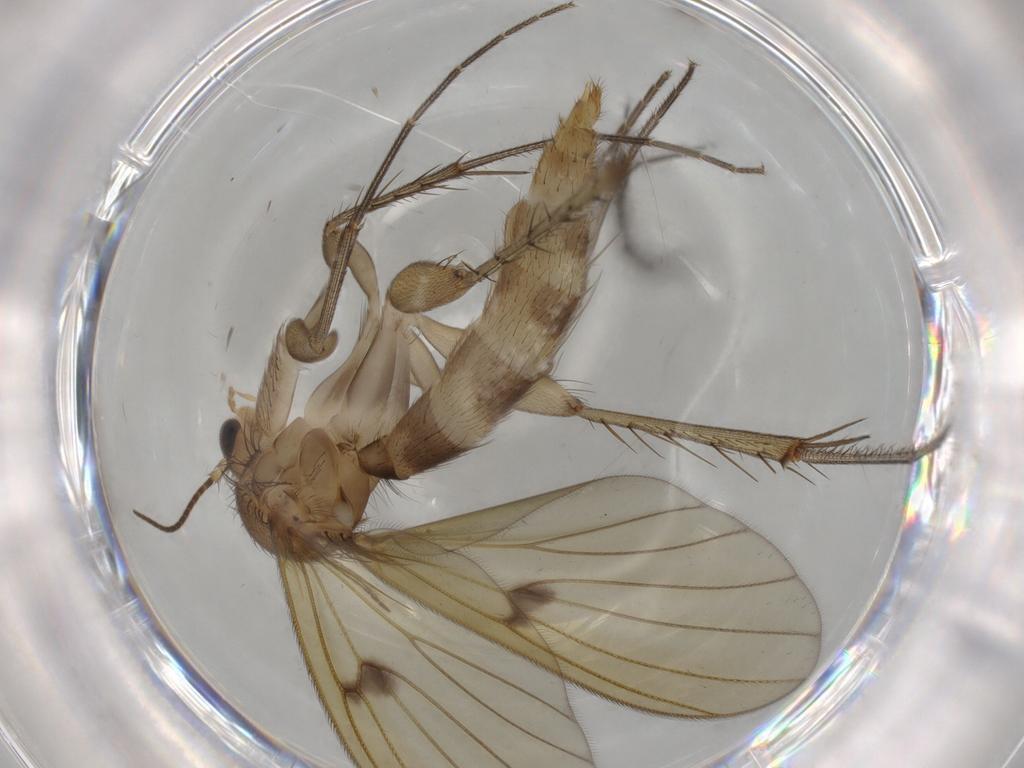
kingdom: Animalia
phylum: Arthropoda
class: Insecta
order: Diptera
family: Mycetophilidae
